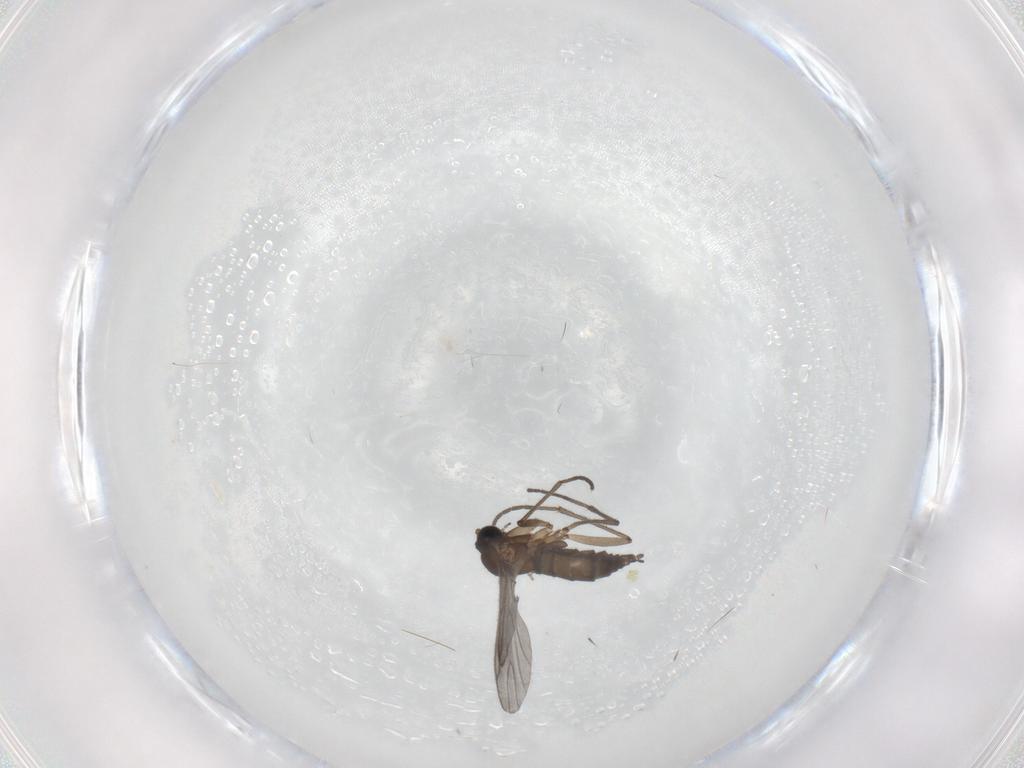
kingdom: Animalia
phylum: Arthropoda
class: Insecta
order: Diptera
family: Sciaridae
